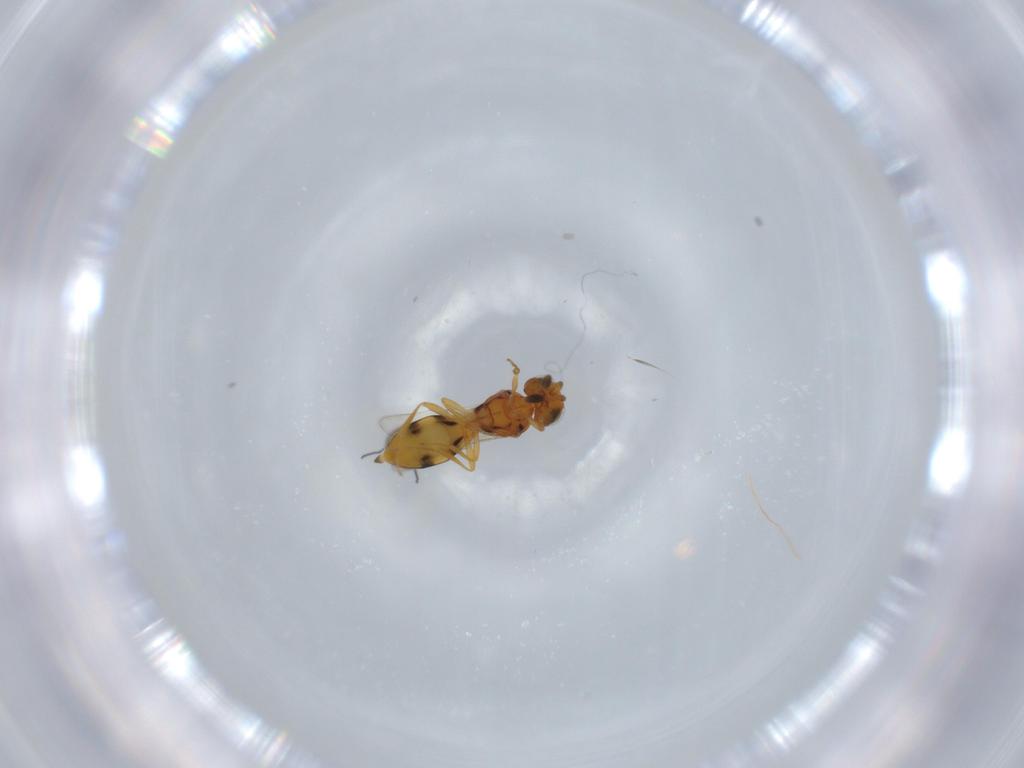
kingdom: Animalia
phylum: Arthropoda
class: Insecta
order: Hymenoptera
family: Scelionidae
